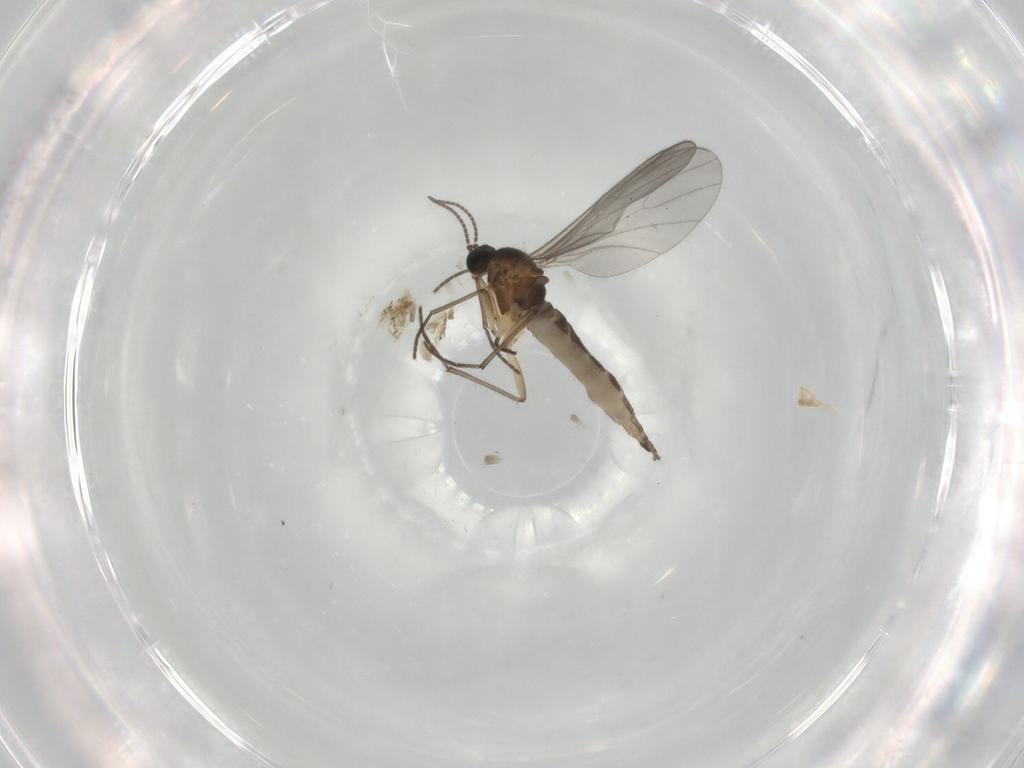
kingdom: Animalia
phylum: Arthropoda
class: Insecta
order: Diptera
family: Sciaridae
